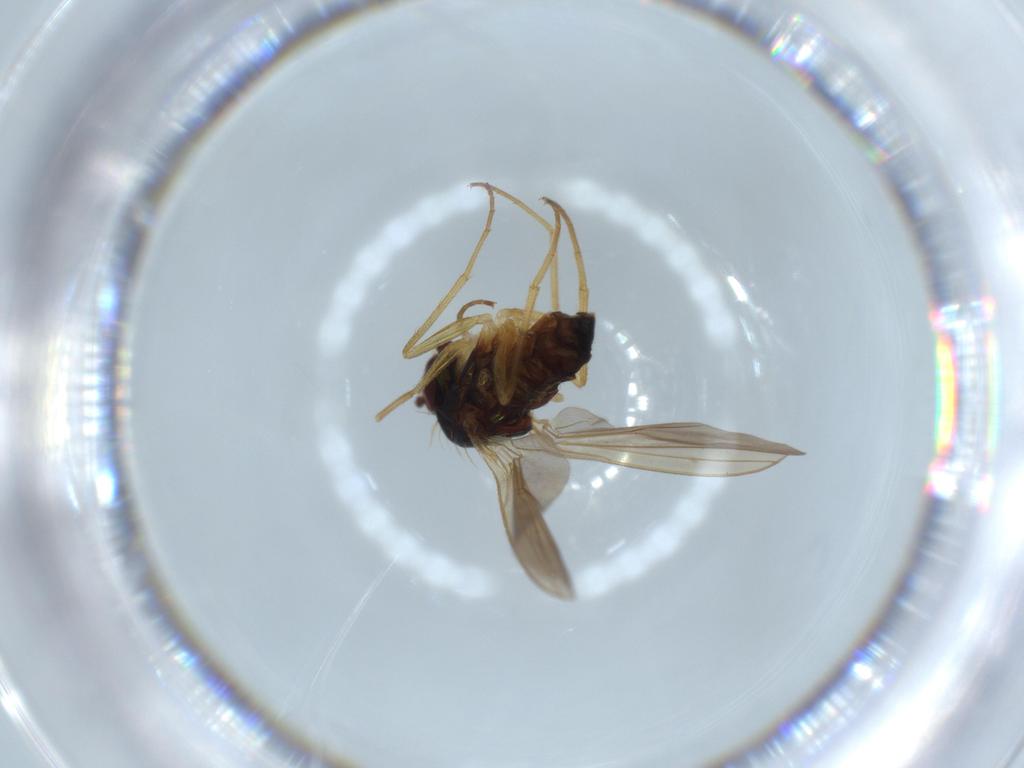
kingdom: Animalia
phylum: Arthropoda
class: Insecta
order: Diptera
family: Dolichopodidae
